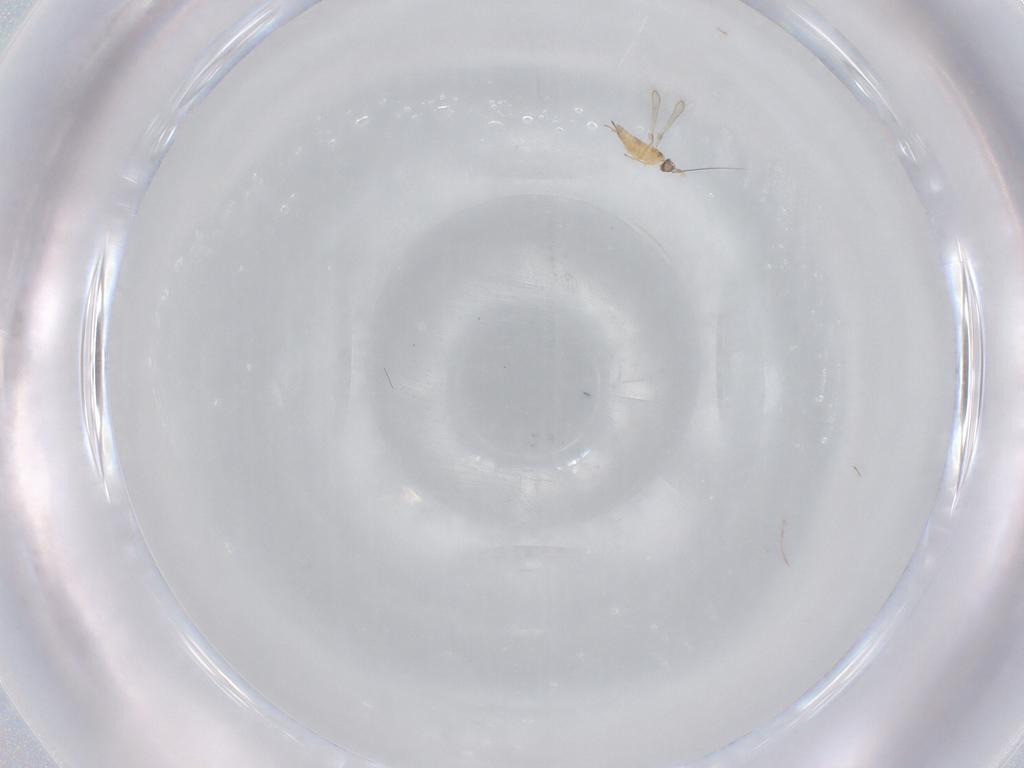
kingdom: Animalia
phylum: Arthropoda
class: Insecta
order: Hymenoptera
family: Mymaridae
